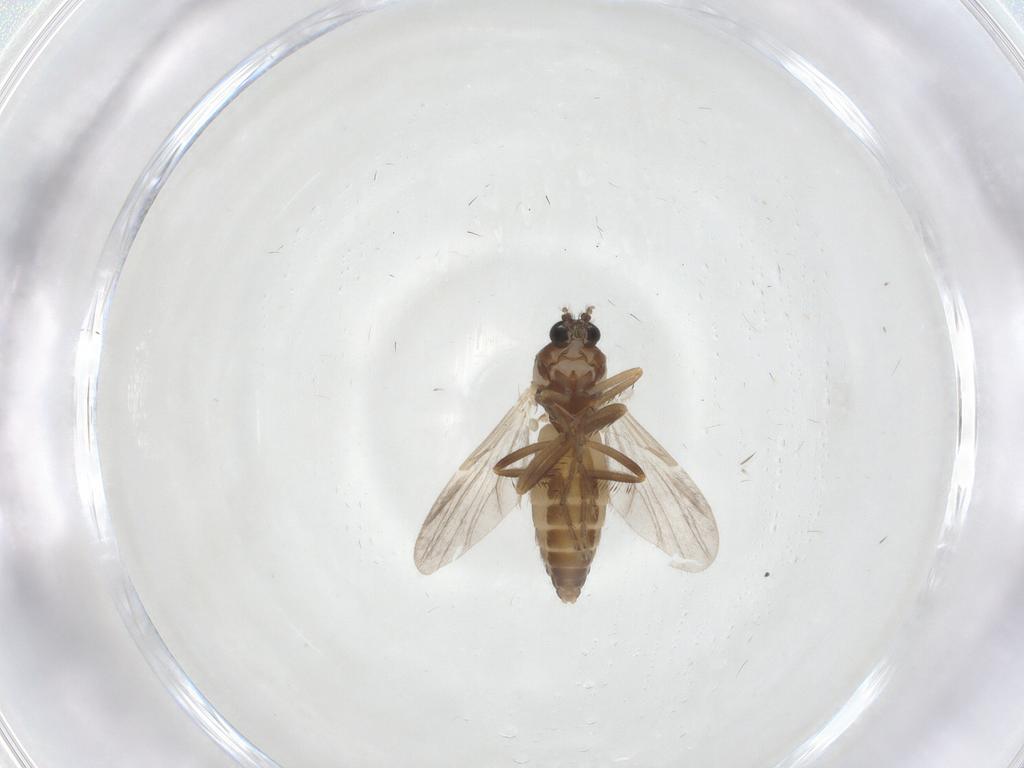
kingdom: Animalia
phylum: Arthropoda
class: Insecta
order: Diptera
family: Ceratopogonidae
